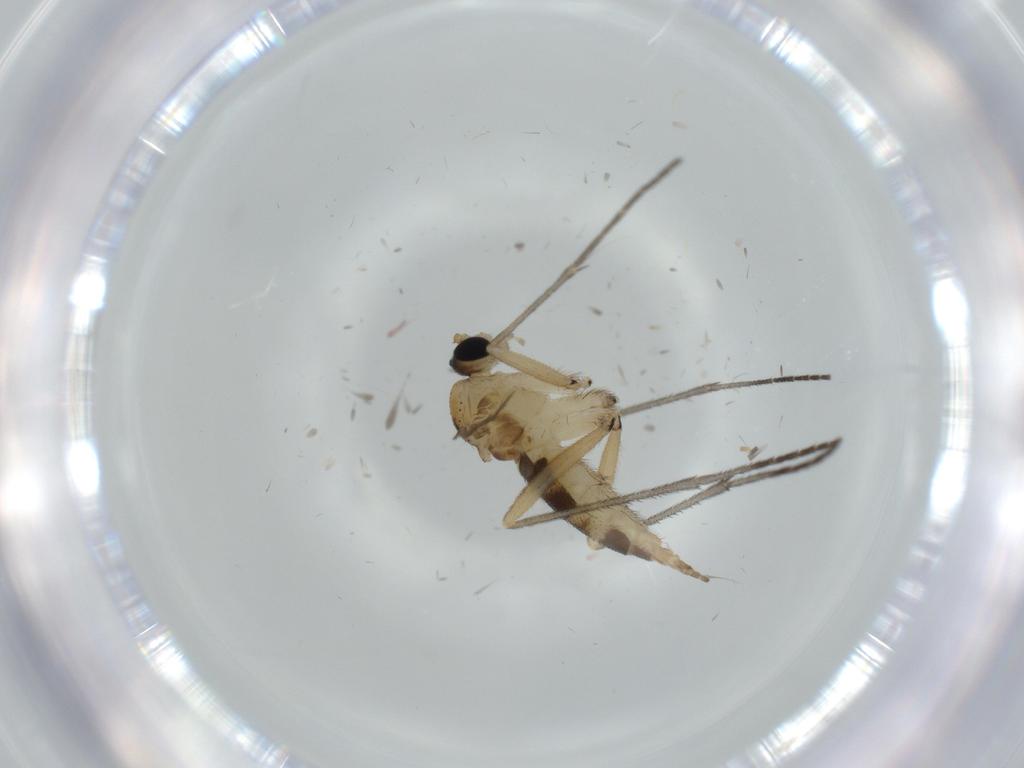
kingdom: Animalia
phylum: Arthropoda
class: Insecta
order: Diptera
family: Sciaridae
